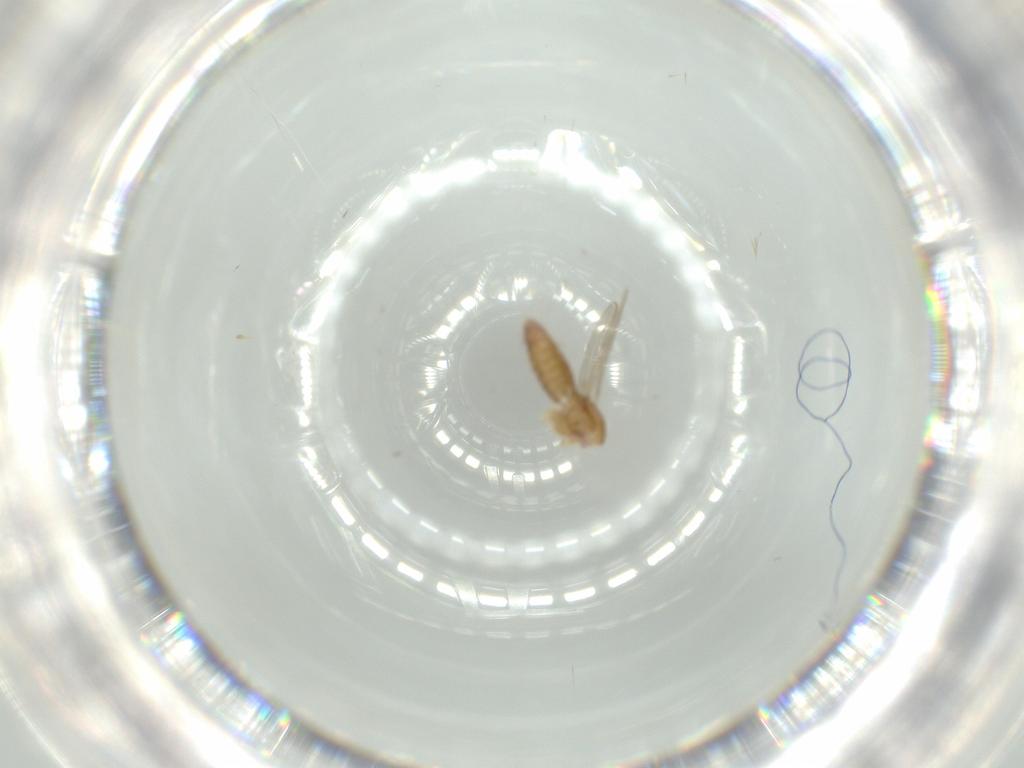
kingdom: Animalia
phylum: Arthropoda
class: Insecta
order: Diptera
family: Chironomidae
